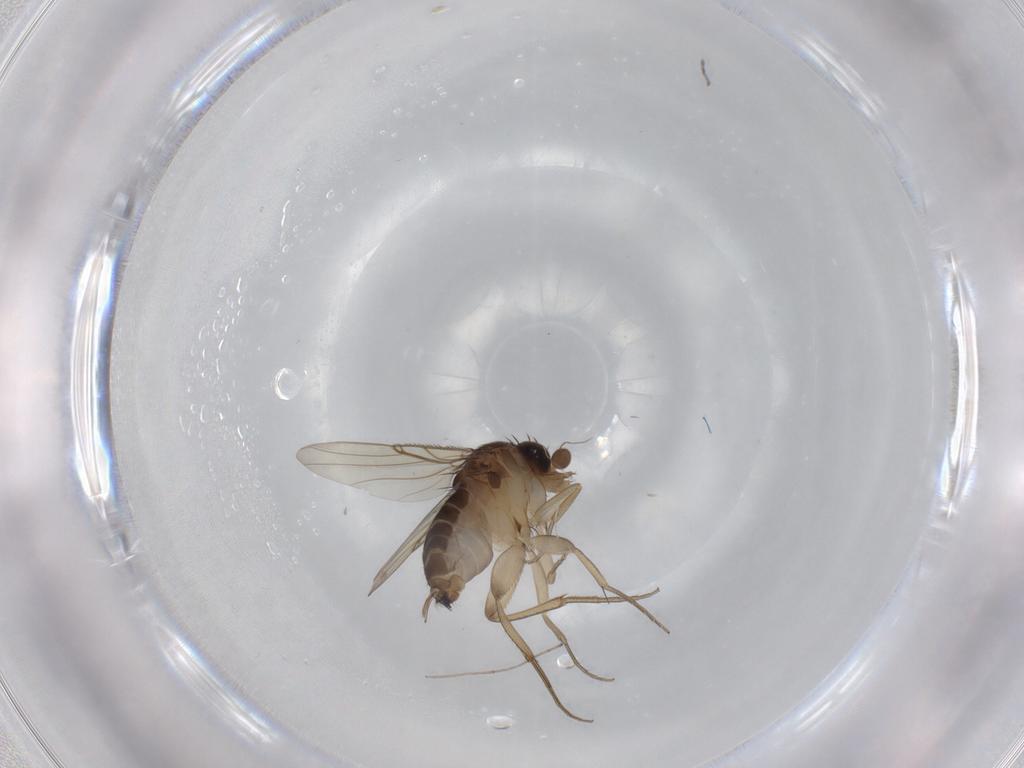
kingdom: Animalia
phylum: Arthropoda
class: Insecta
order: Diptera
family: Phoridae
